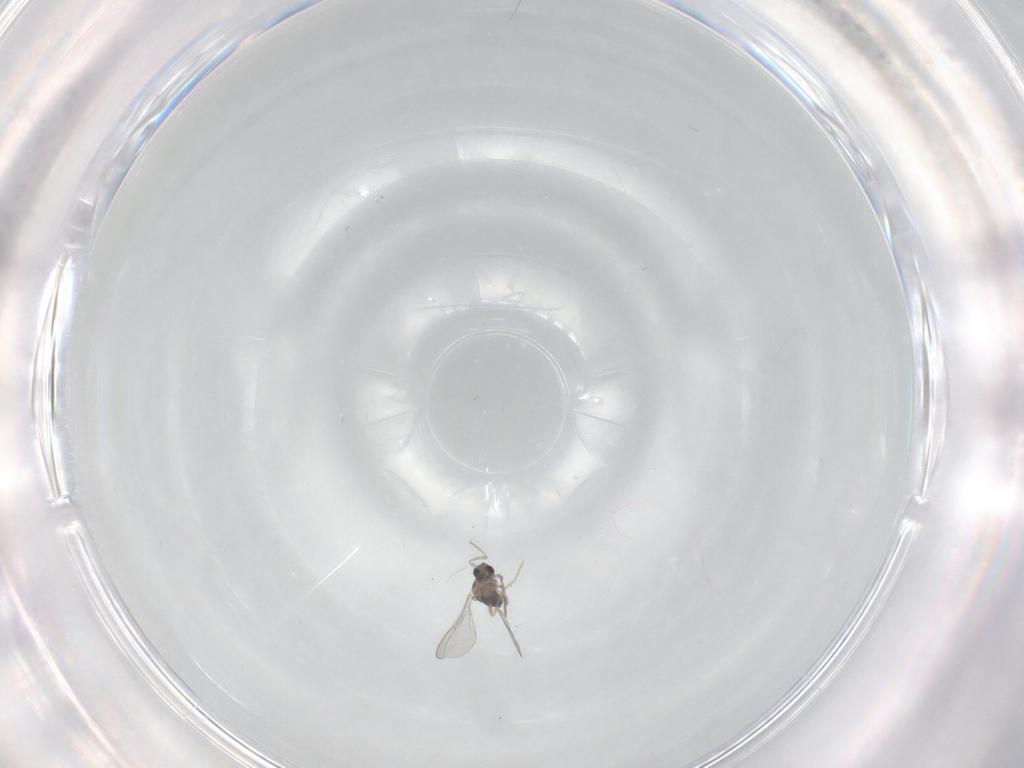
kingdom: Animalia
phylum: Arthropoda
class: Insecta
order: Diptera
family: Cecidomyiidae
